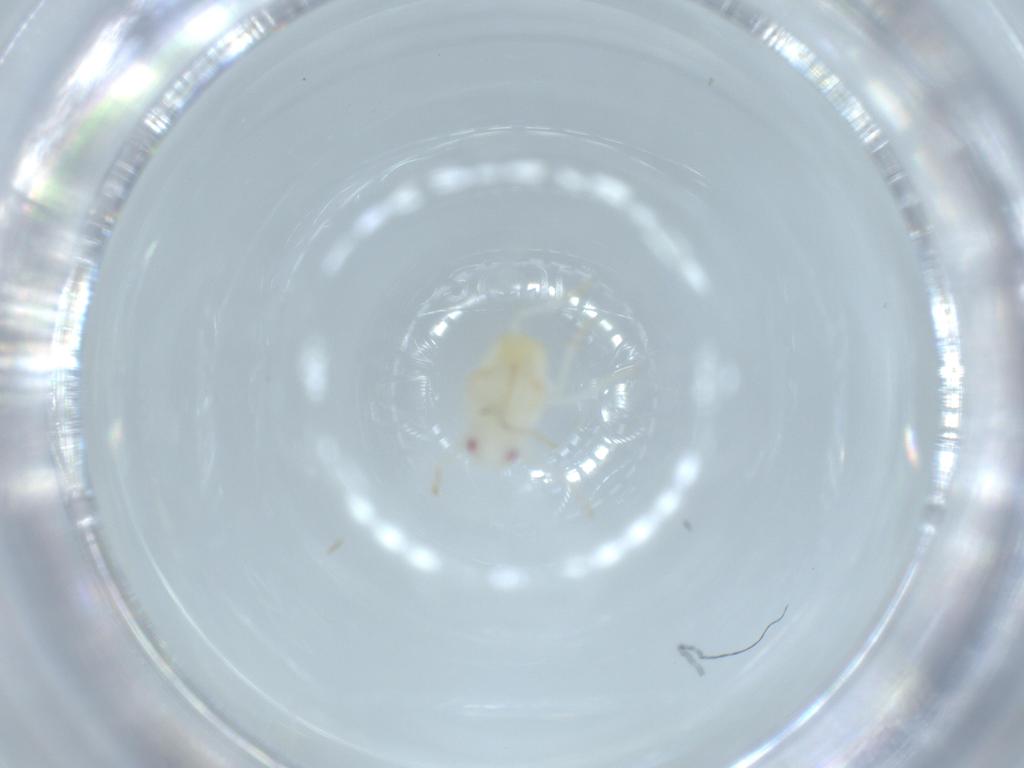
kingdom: Animalia
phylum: Arthropoda
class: Insecta
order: Hemiptera
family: Flatidae
